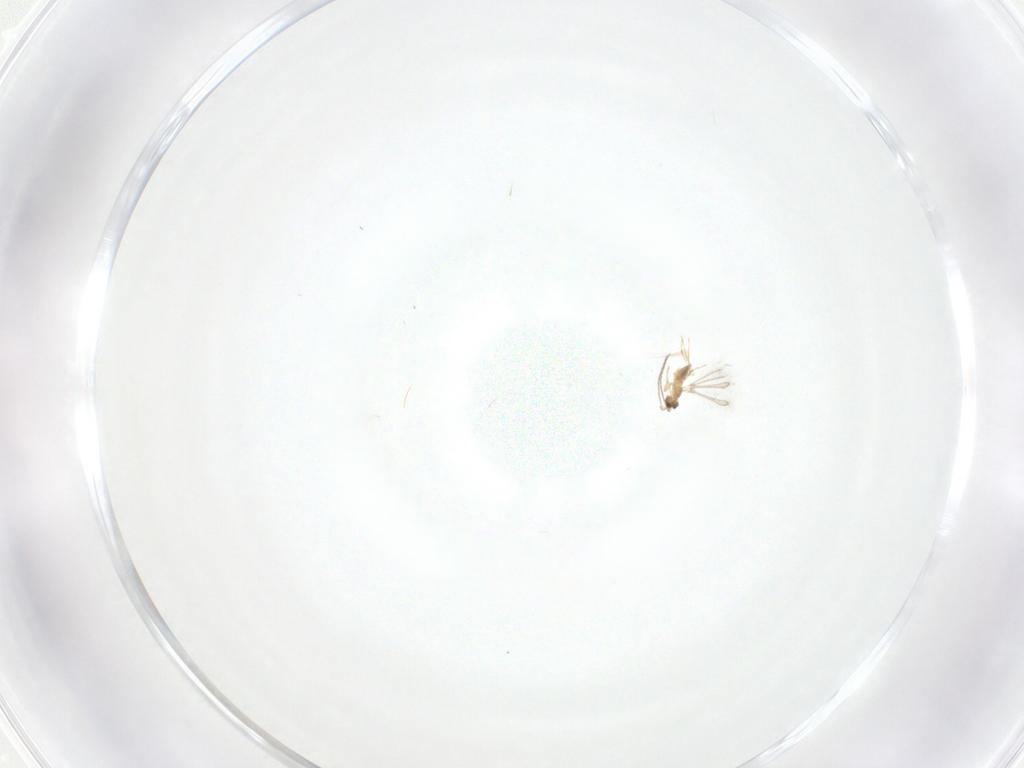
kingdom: Animalia
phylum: Arthropoda
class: Insecta
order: Hymenoptera
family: Mymaridae
